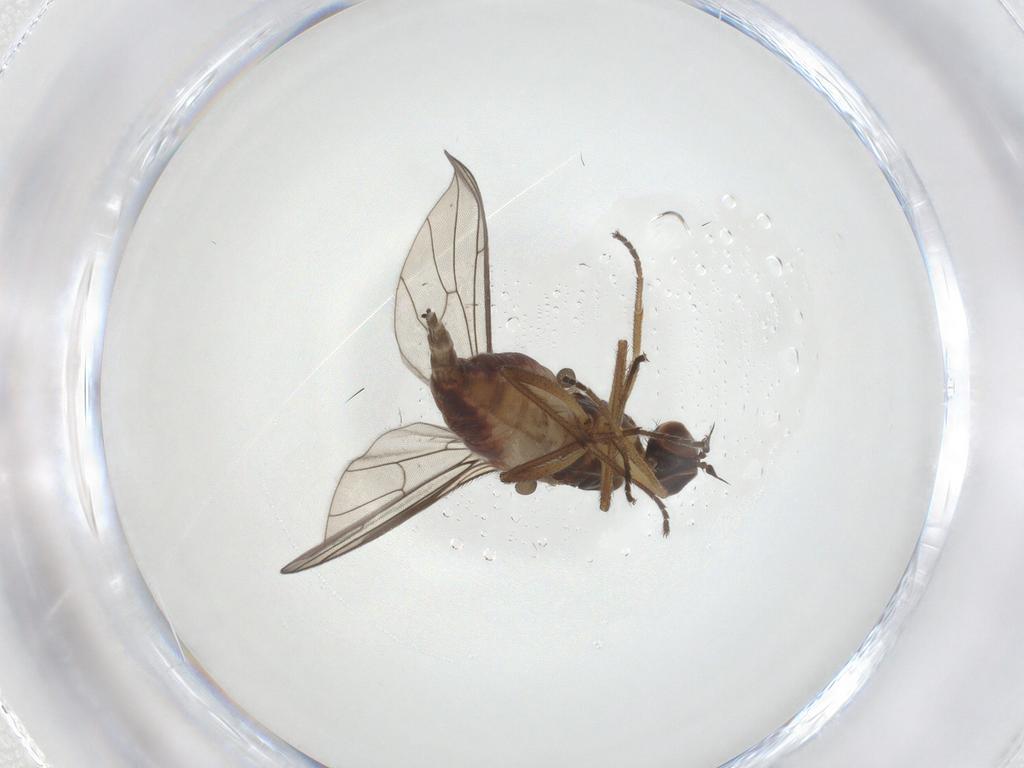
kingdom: Animalia
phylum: Arthropoda
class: Insecta
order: Diptera
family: Empididae
